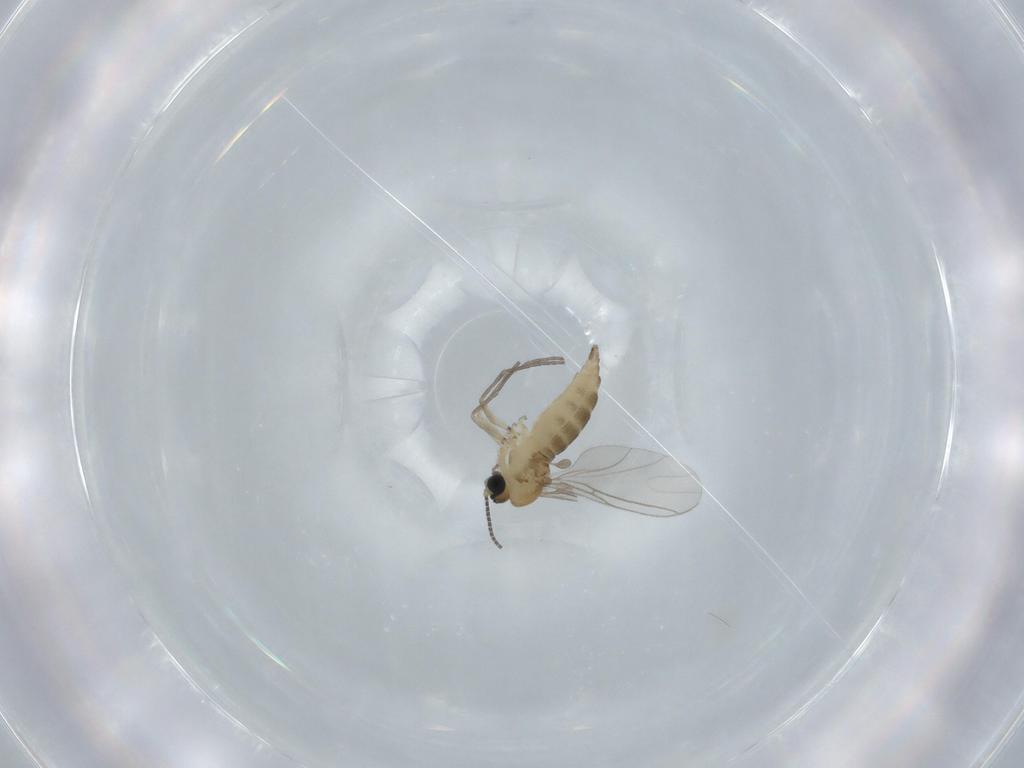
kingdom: Animalia
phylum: Arthropoda
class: Insecta
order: Diptera
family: Sciaridae
